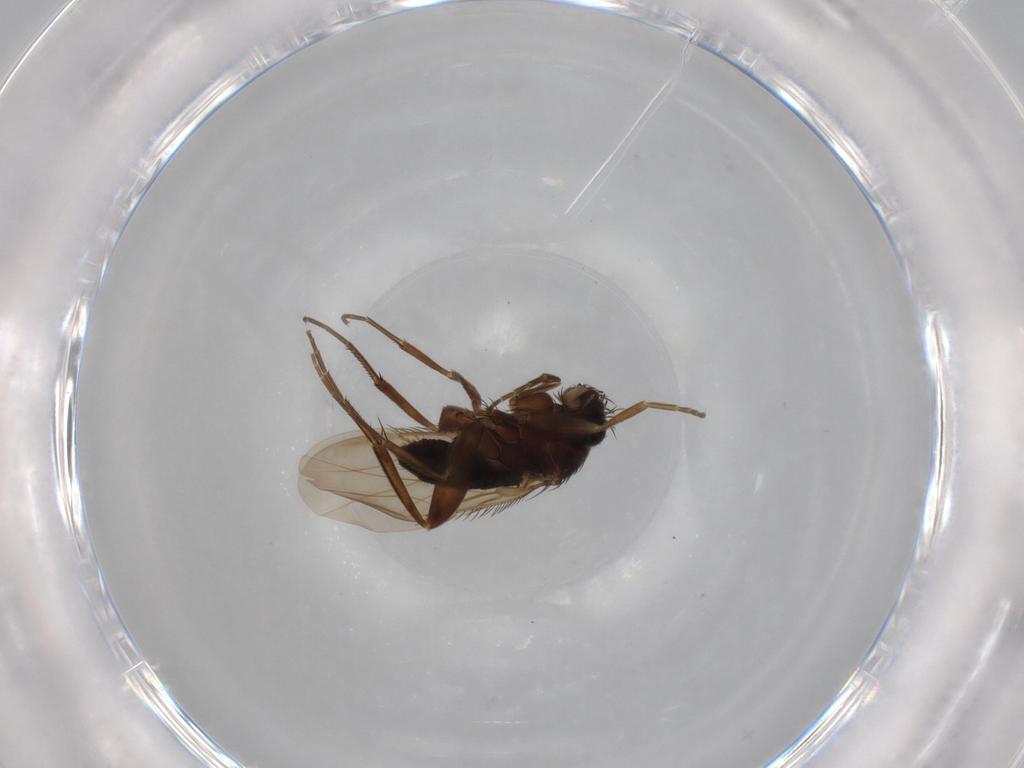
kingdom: Animalia
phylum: Arthropoda
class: Insecta
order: Diptera
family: Phoridae
